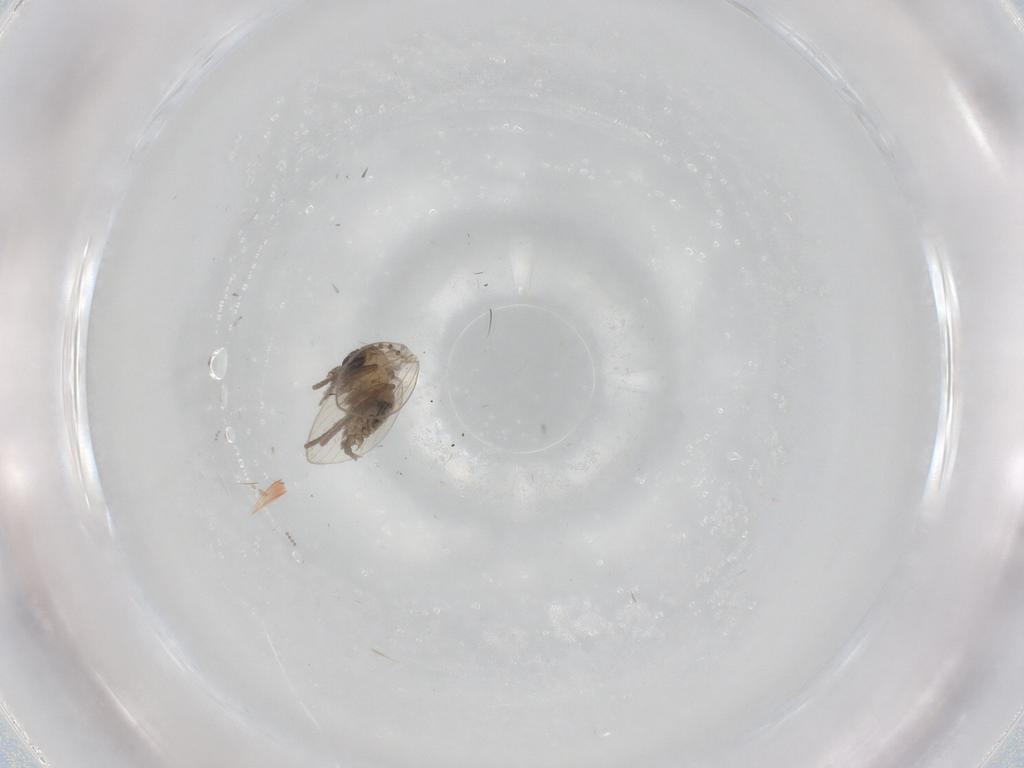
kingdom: Animalia
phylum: Arthropoda
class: Insecta
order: Diptera
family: Psychodidae
